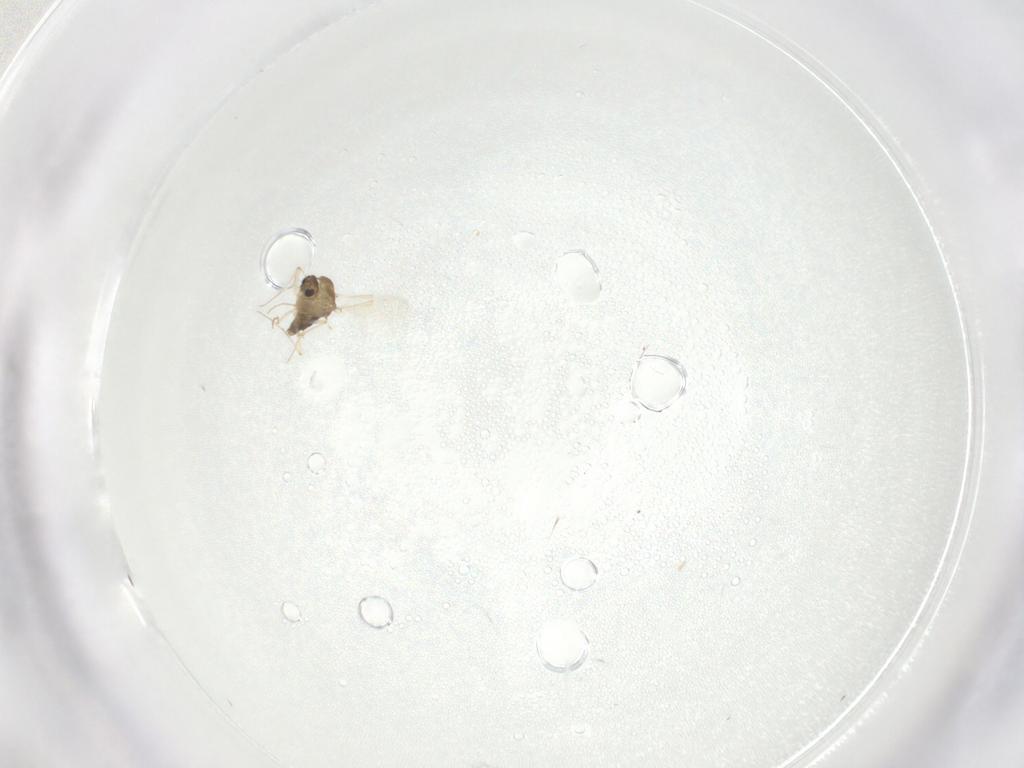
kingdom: Animalia
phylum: Arthropoda
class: Insecta
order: Diptera
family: Chironomidae
